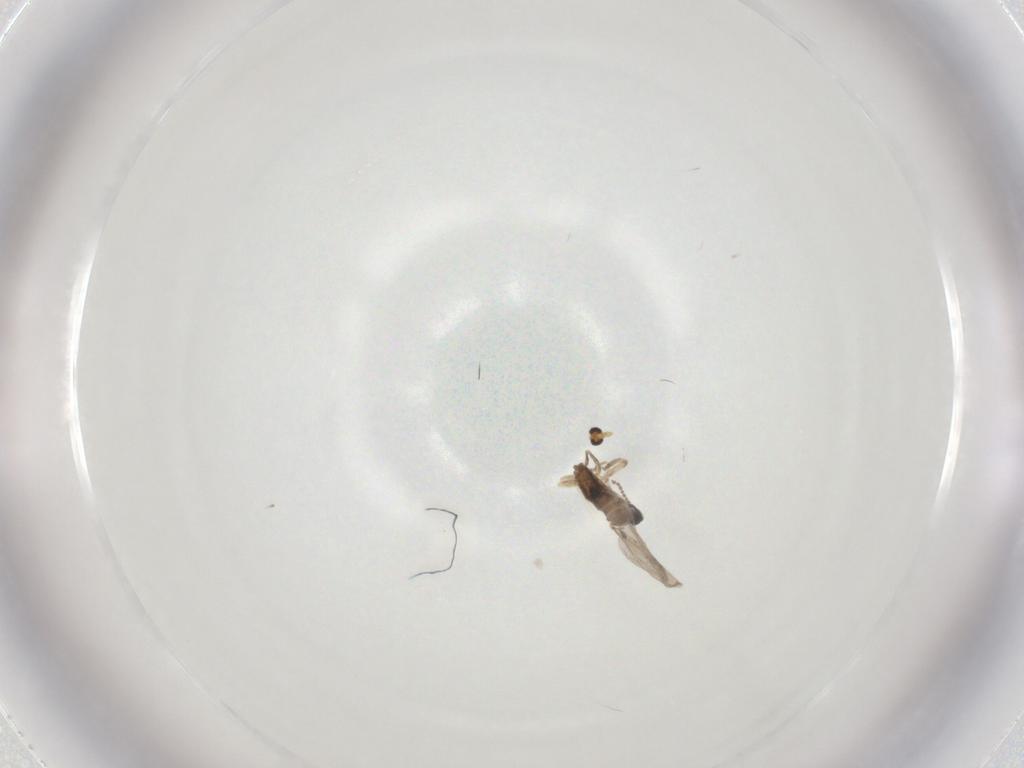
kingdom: Animalia
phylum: Arthropoda
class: Insecta
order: Diptera
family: Chironomidae
